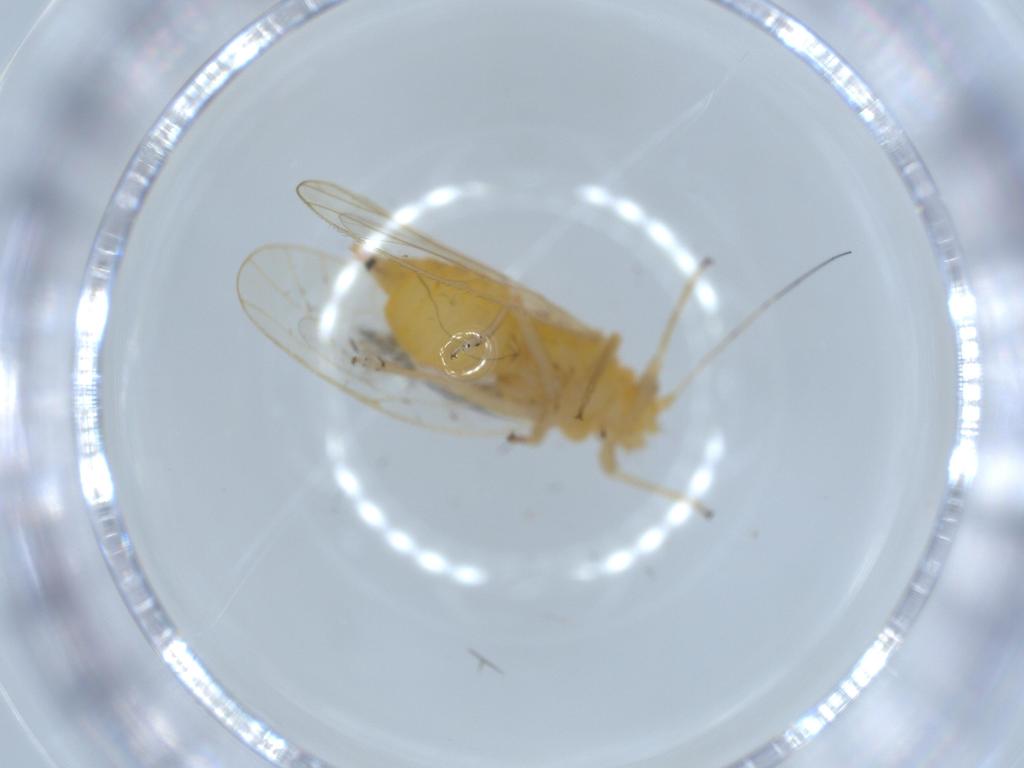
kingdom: Animalia
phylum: Arthropoda
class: Insecta
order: Hemiptera
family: Psyllidae
